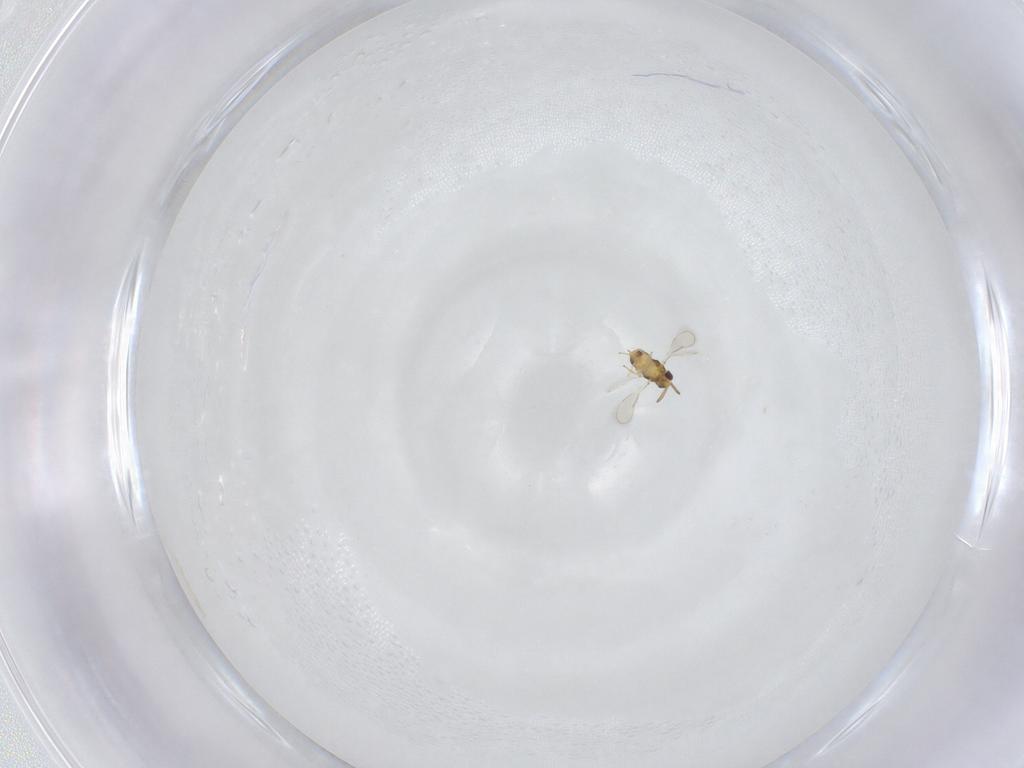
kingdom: Animalia
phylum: Arthropoda
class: Insecta
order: Hymenoptera
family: Aphelinidae
